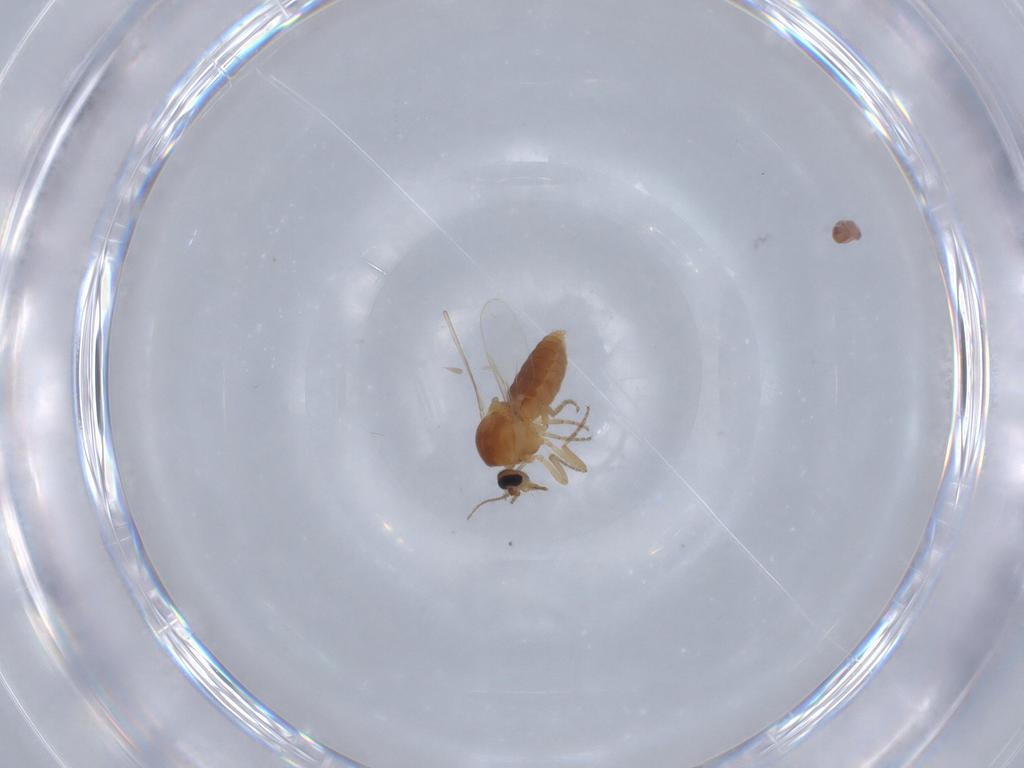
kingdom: Animalia
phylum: Arthropoda
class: Insecta
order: Diptera
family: Ceratopogonidae
